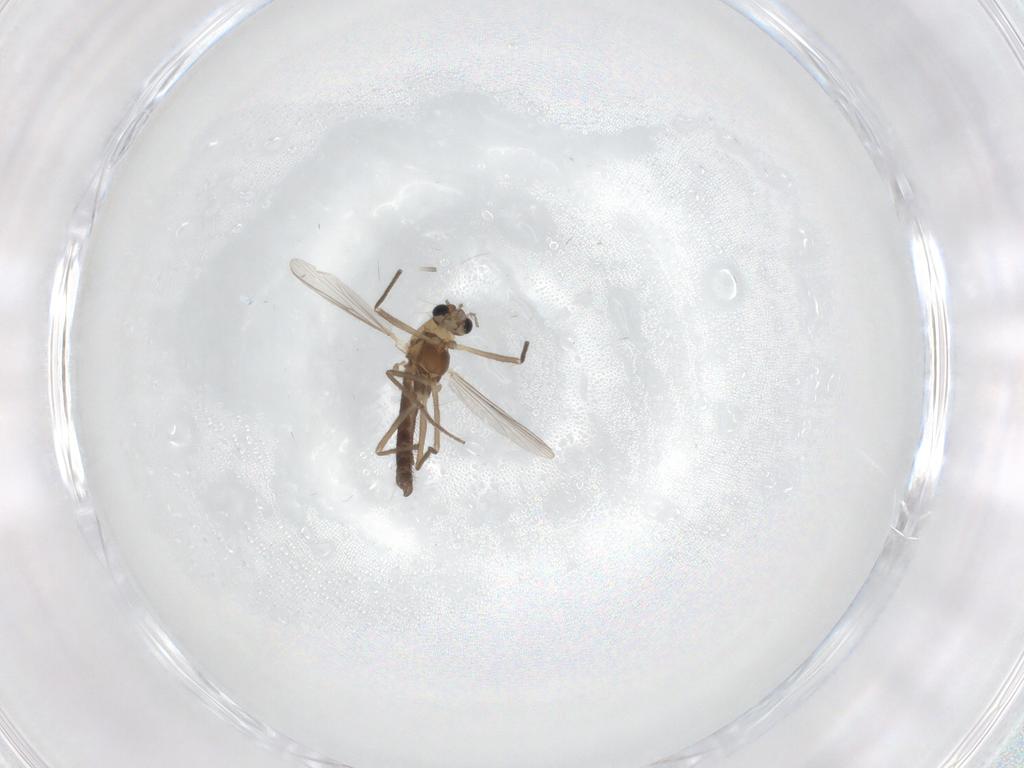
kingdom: Animalia
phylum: Arthropoda
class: Insecta
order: Diptera
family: Chironomidae
